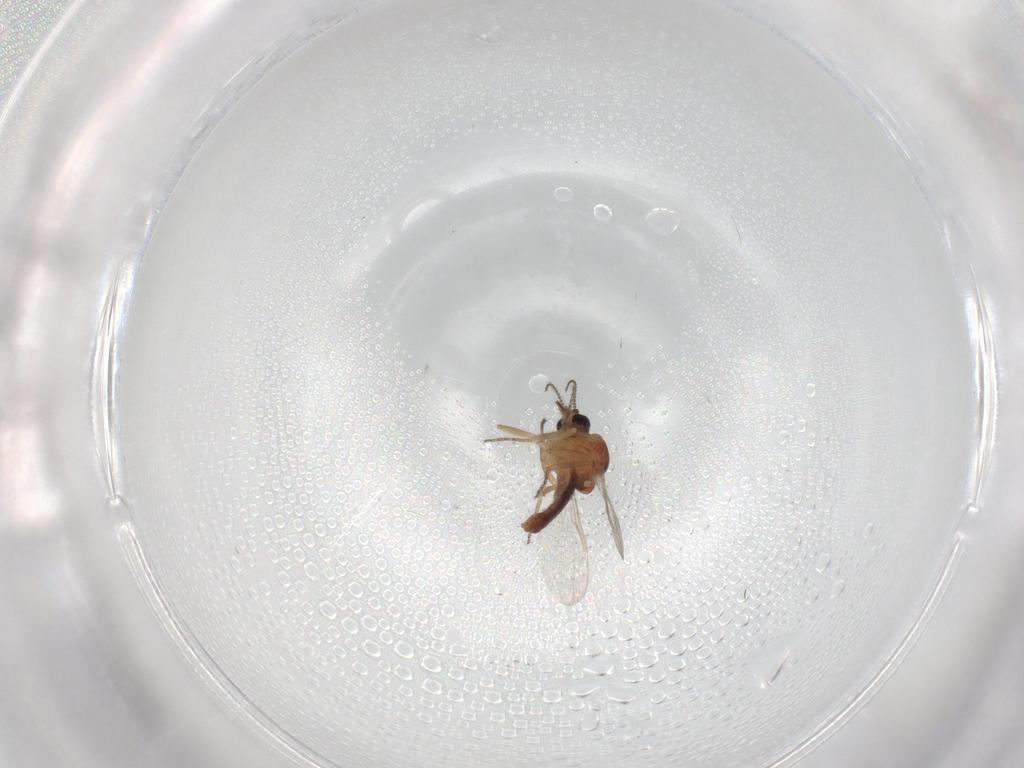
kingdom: Animalia
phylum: Arthropoda
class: Insecta
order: Diptera
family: Ceratopogonidae
